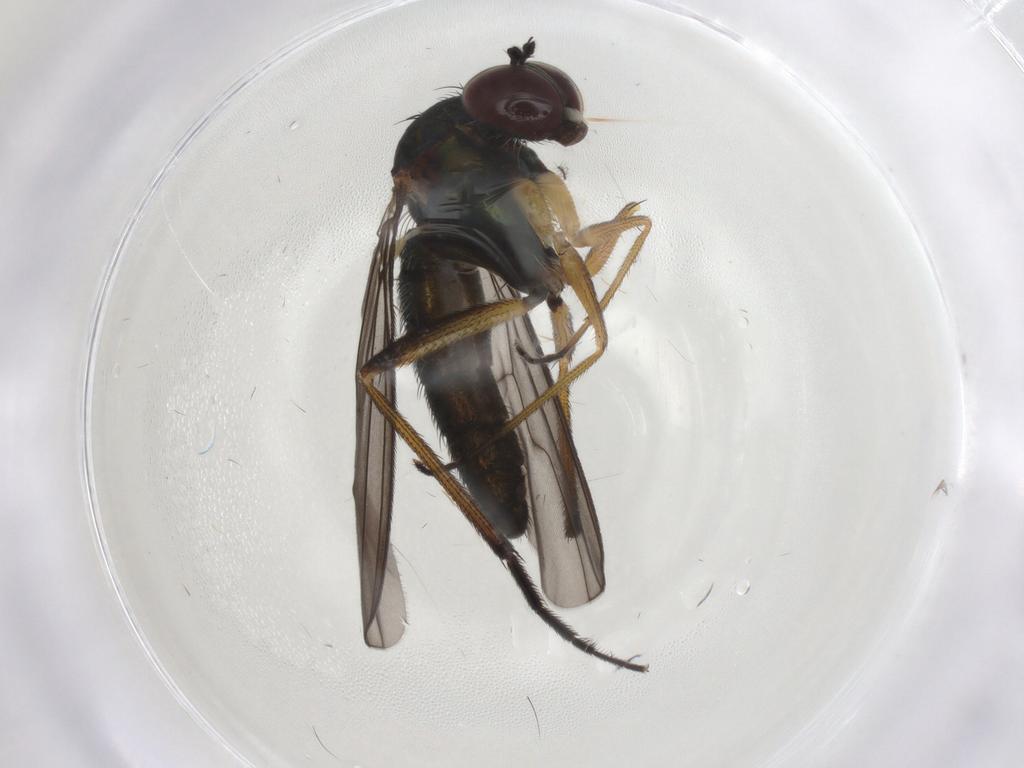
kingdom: Animalia
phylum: Arthropoda
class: Insecta
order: Diptera
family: Dolichopodidae
